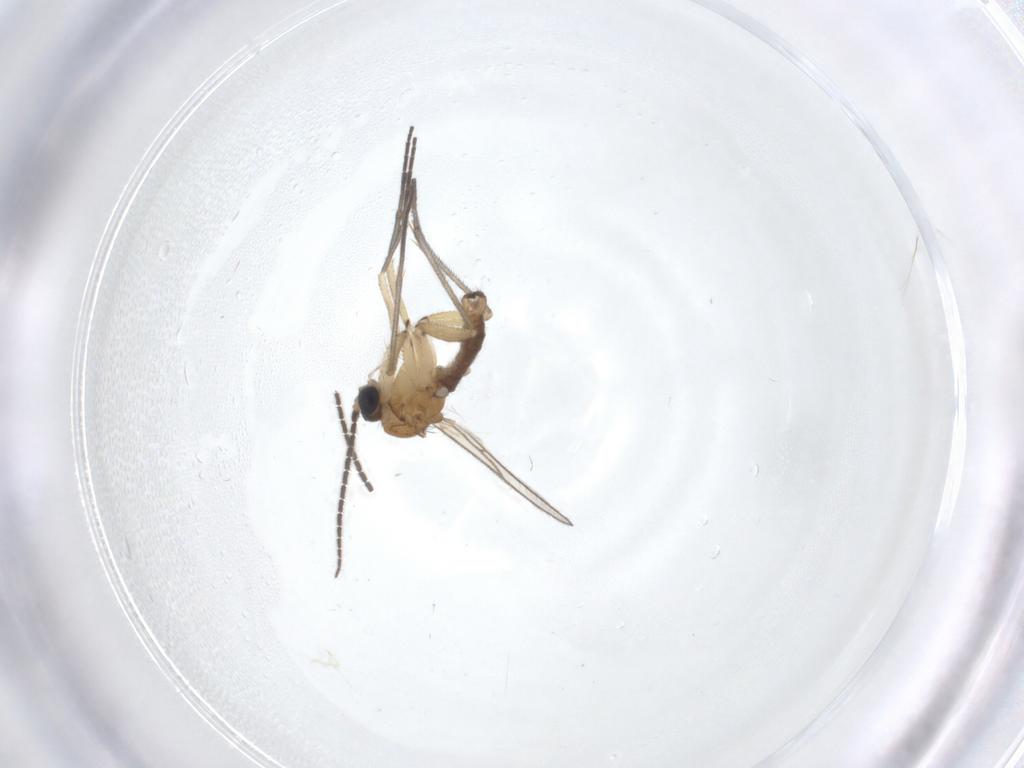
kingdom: Animalia
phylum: Arthropoda
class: Insecta
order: Diptera
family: Sciaridae
